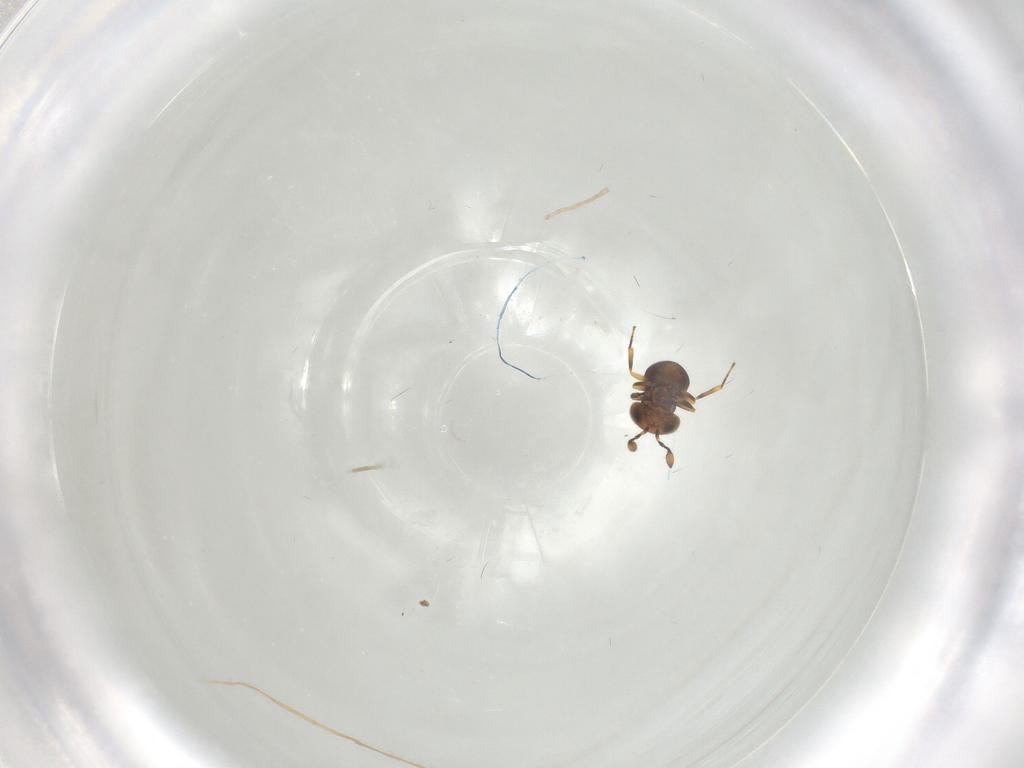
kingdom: Animalia
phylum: Arthropoda
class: Insecta
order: Hymenoptera
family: Scelionidae
